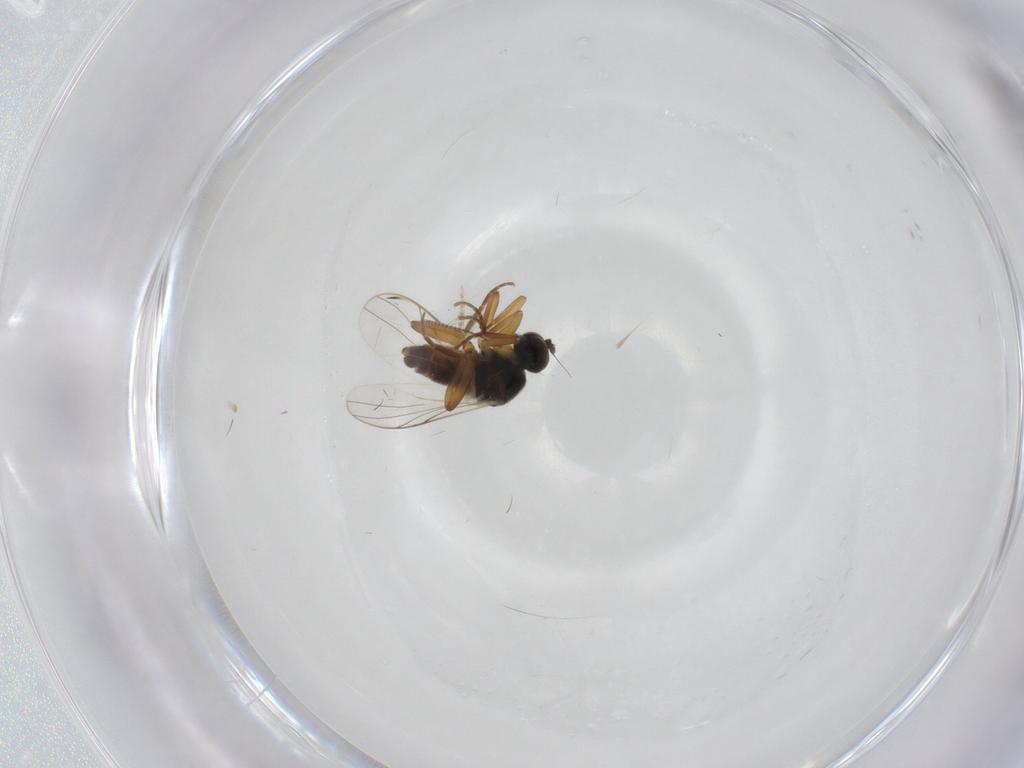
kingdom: Animalia
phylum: Arthropoda
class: Insecta
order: Diptera
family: Hybotidae
